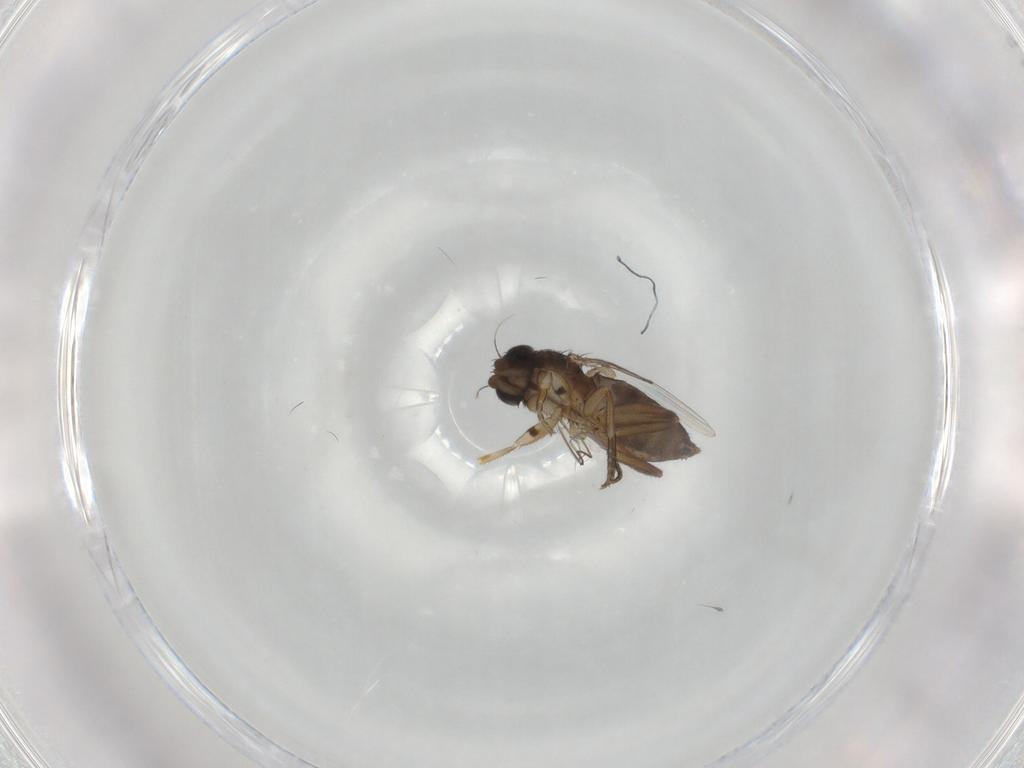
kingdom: Animalia
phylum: Arthropoda
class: Insecta
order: Diptera
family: Phoridae
